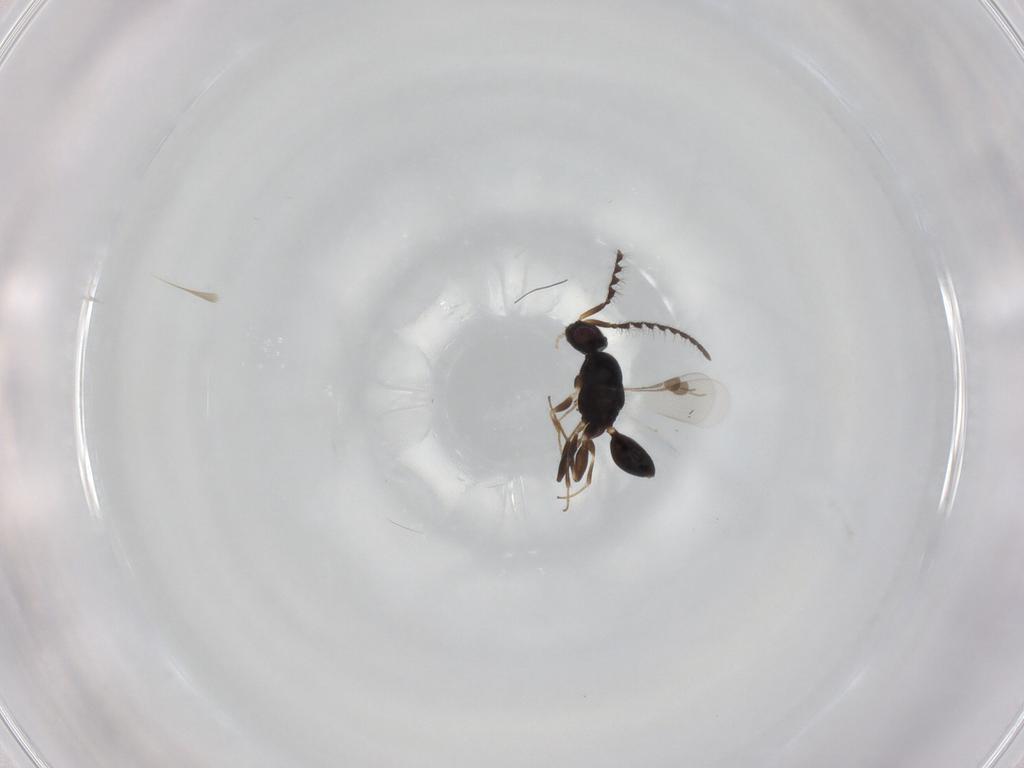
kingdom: Animalia
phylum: Arthropoda
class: Insecta
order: Hymenoptera
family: Megaspilidae
